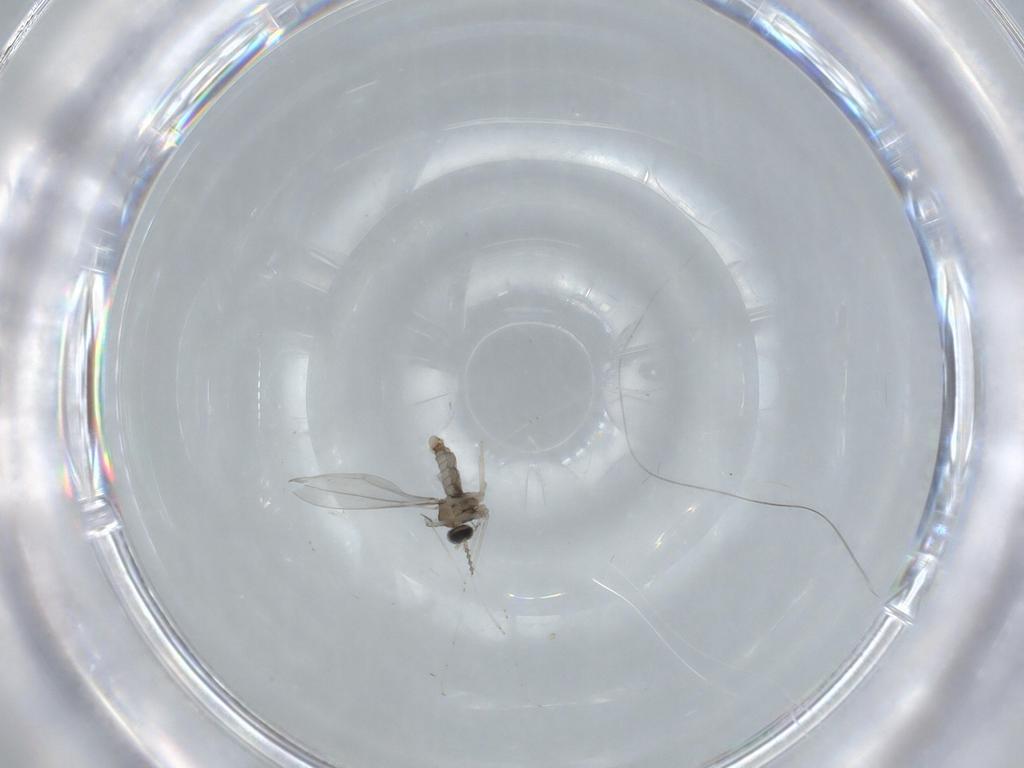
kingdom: Animalia
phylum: Arthropoda
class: Insecta
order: Diptera
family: Cecidomyiidae
